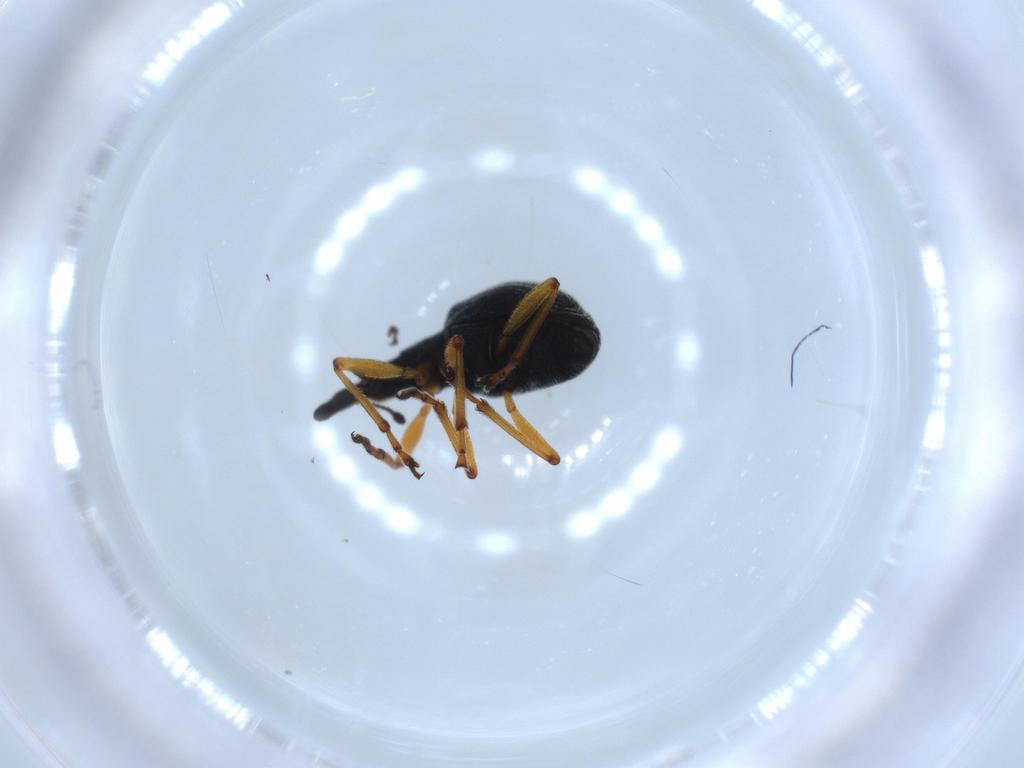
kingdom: Animalia
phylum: Arthropoda
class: Insecta
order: Coleoptera
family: Brentidae
